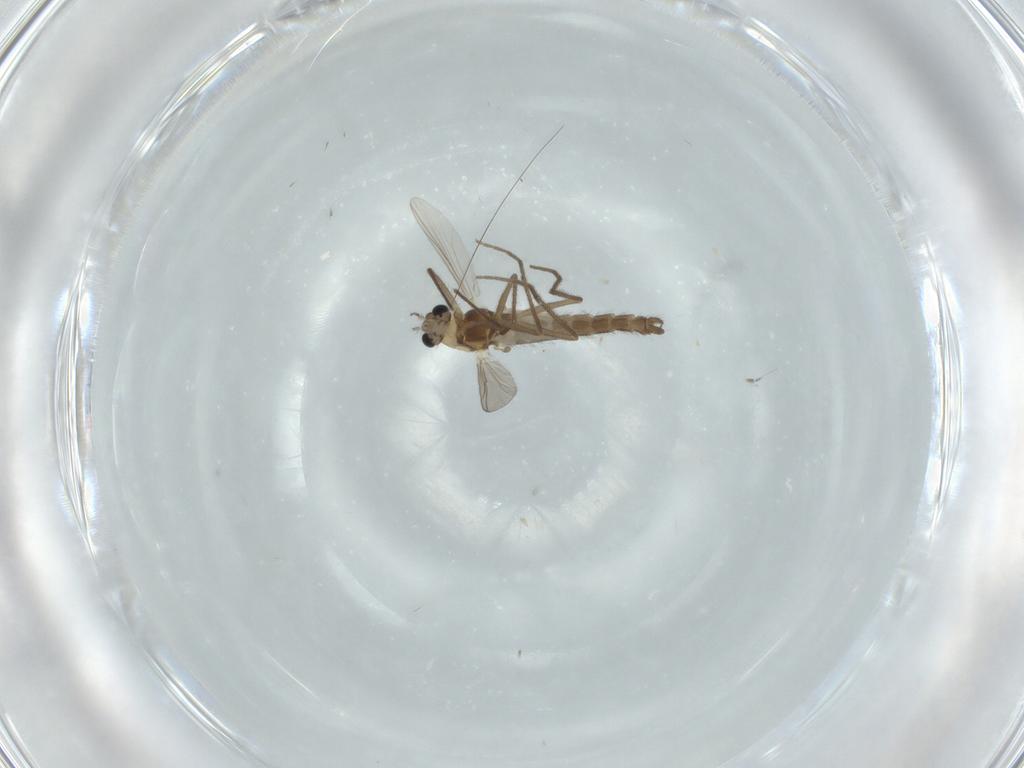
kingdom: Animalia
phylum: Arthropoda
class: Insecta
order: Diptera
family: Chironomidae
